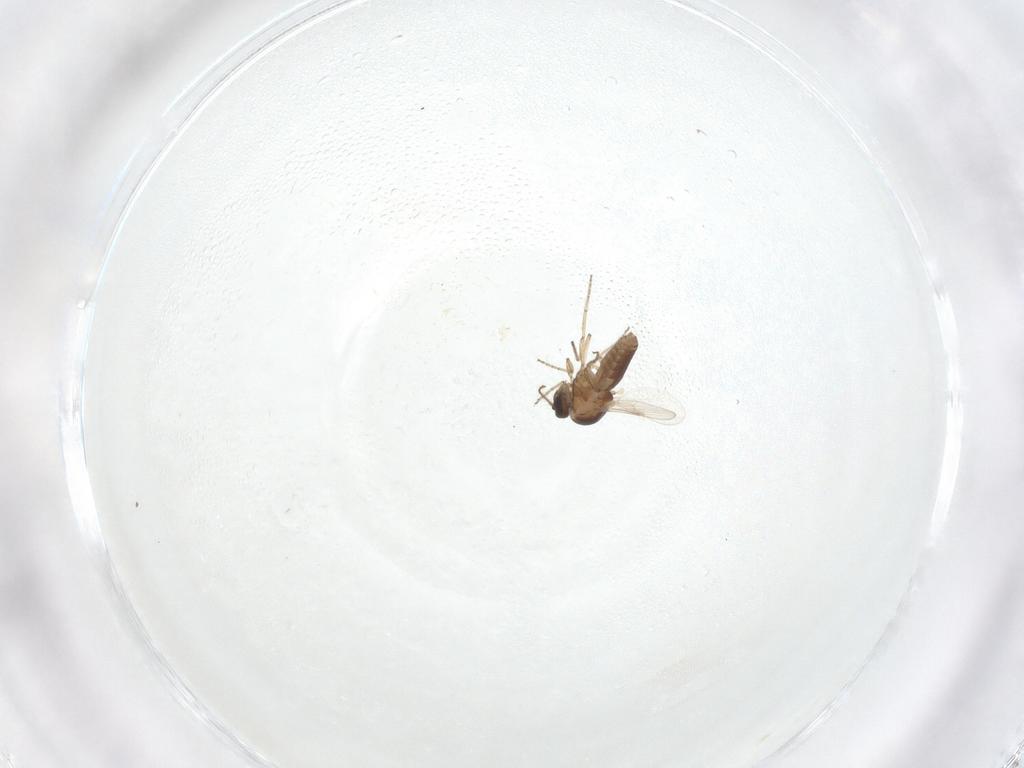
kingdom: Animalia
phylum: Arthropoda
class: Insecta
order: Diptera
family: Ceratopogonidae
